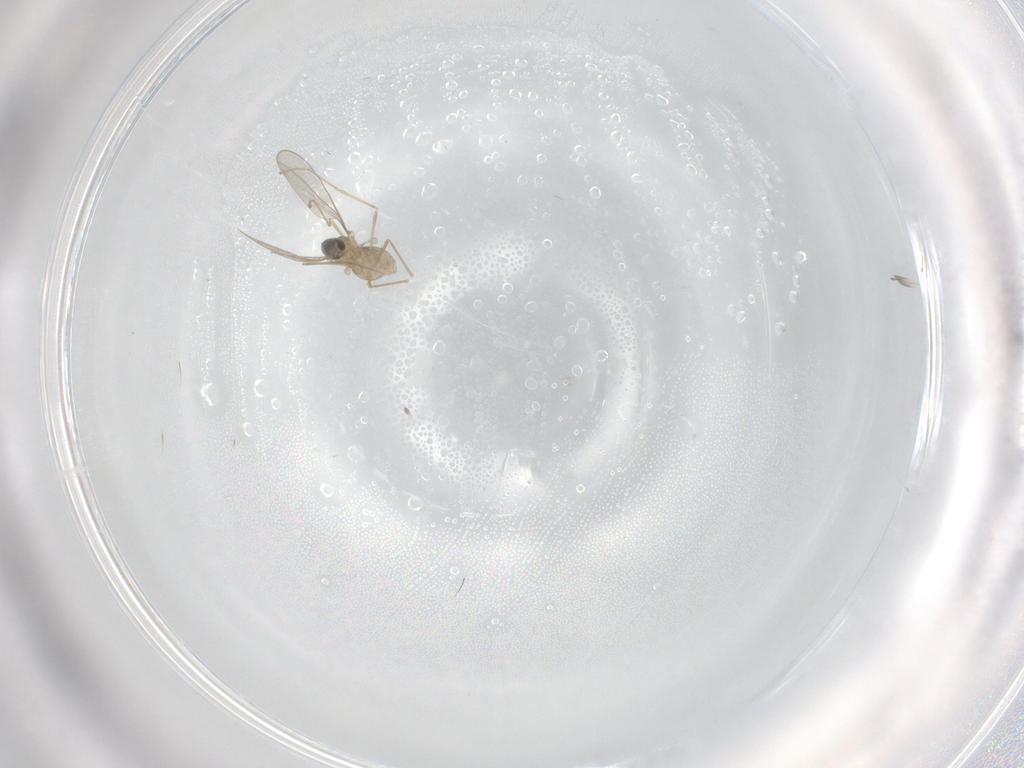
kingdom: Animalia
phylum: Arthropoda
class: Insecta
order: Diptera
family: Cecidomyiidae
